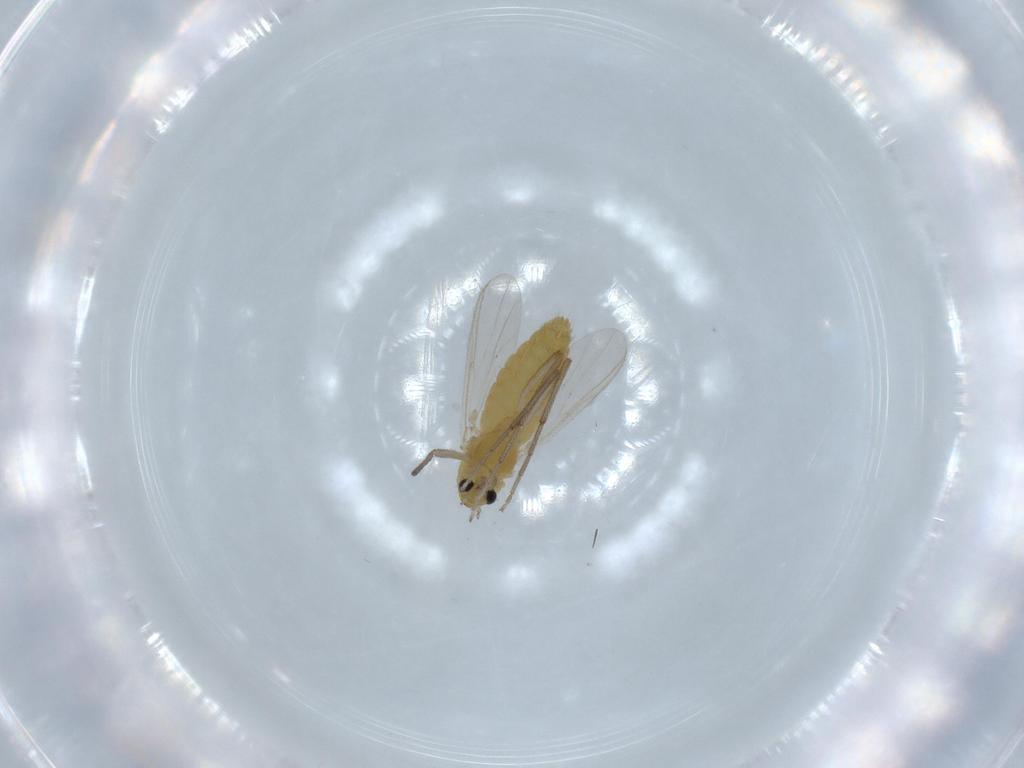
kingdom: Animalia
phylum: Arthropoda
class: Insecta
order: Diptera
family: Chironomidae
